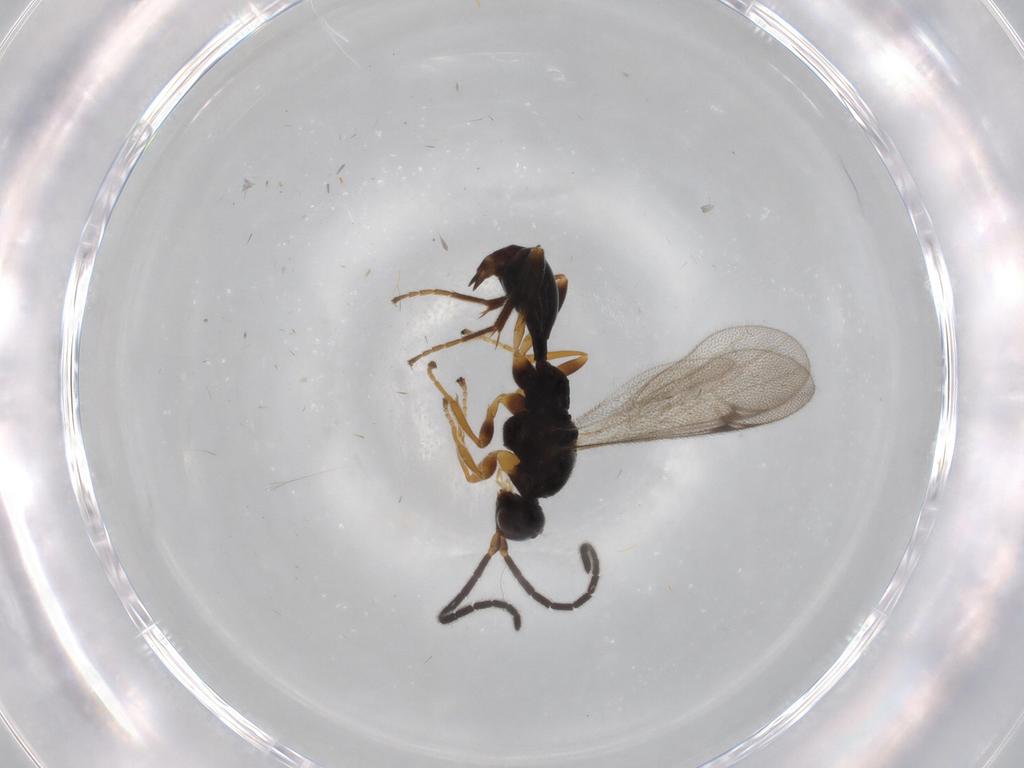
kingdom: Animalia
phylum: Arthropoda
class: Insecta
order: Hymenoptera
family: Proctotrupidae
